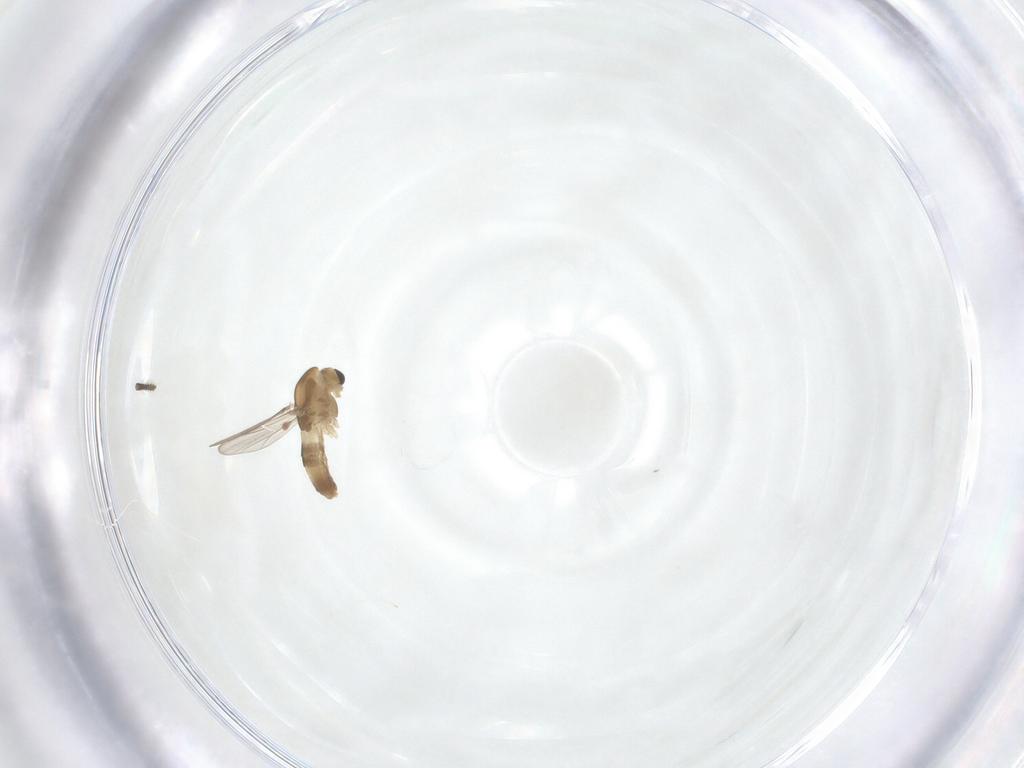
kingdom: Animalia
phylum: Arthropoda
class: Insecta
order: Diptera
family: Chironomidae
